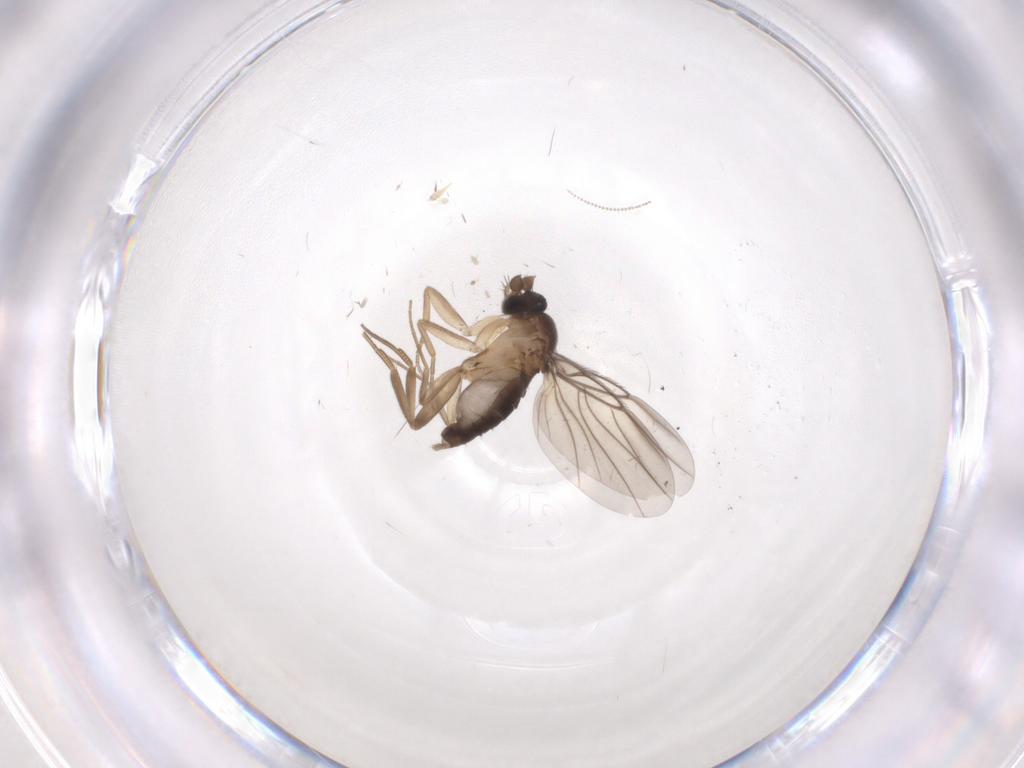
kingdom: Animalia
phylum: Arthropoda
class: Insecta
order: Diptera
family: Phoridae
